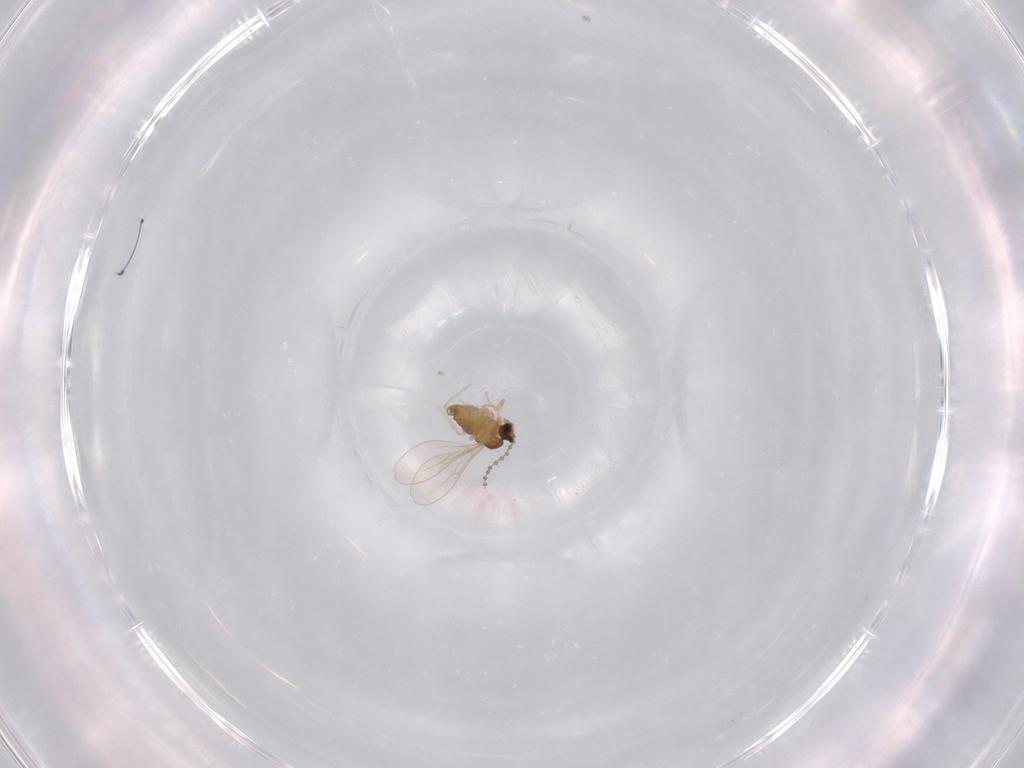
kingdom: Animalia
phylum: Arthropoda
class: Insecta
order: Diptera
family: Cecidomyiidae
